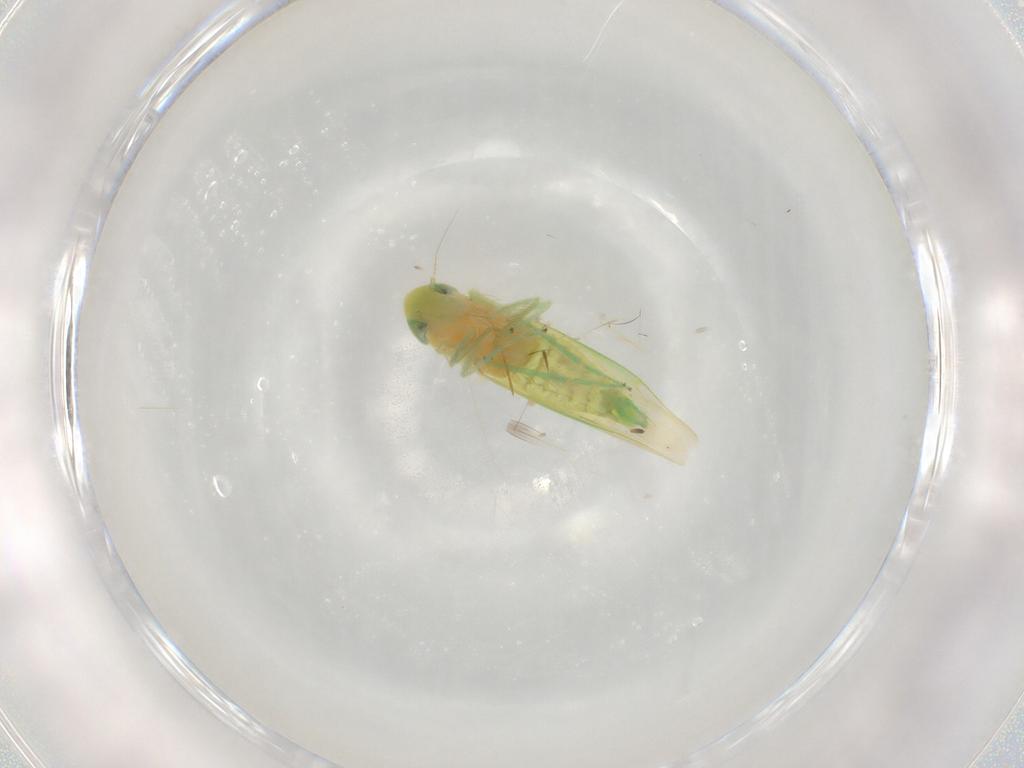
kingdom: Animalia
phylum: Arthropoda
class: Insecta
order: Hemiptera
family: Cicadellidae
